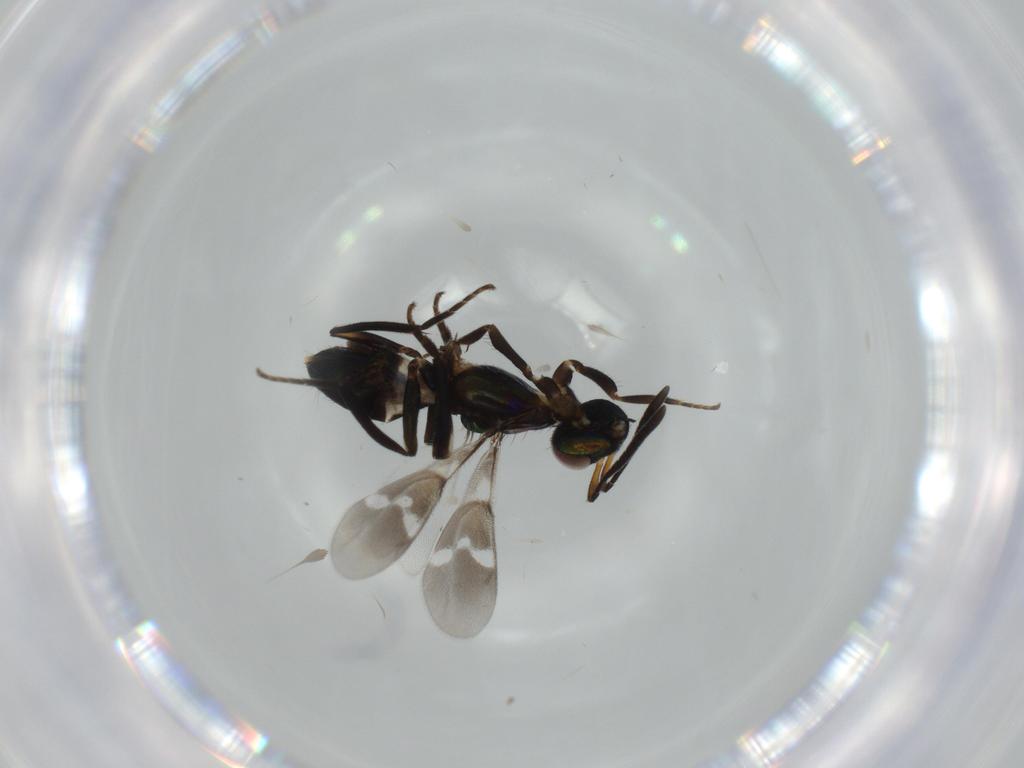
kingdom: Animalia
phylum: Arthropoda
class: Insecta
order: Hymenoptera
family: Eupelmidae
